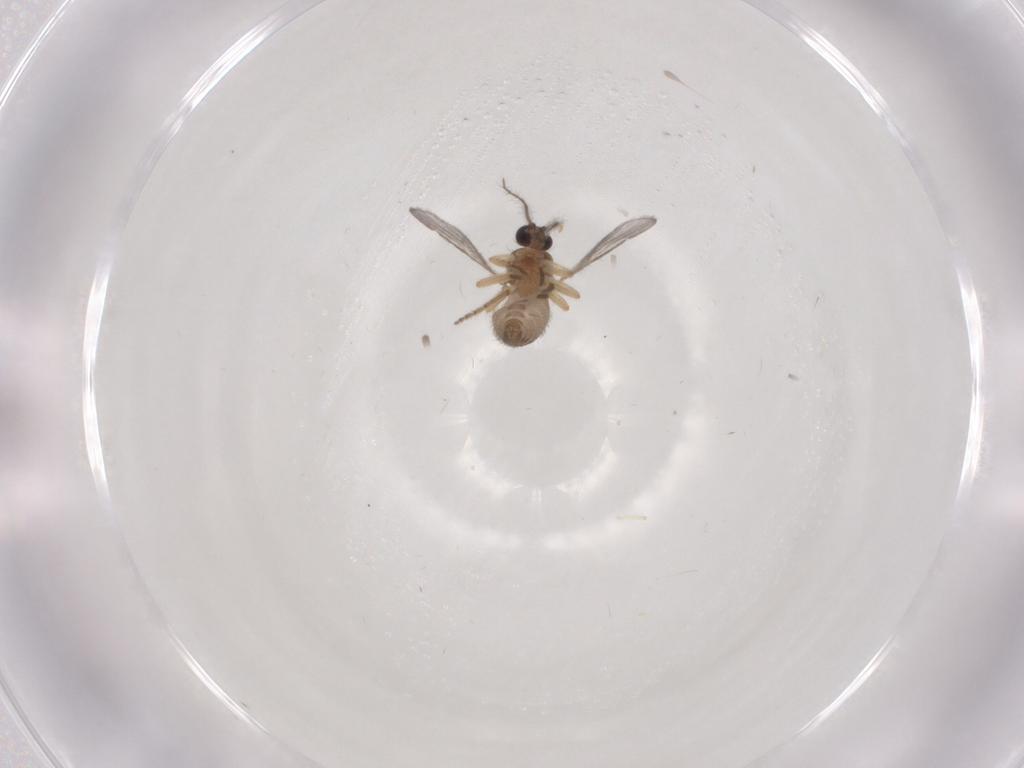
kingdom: Animalia
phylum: Arthropoda
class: Insecta
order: Diptera
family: Ceratopogonidae
